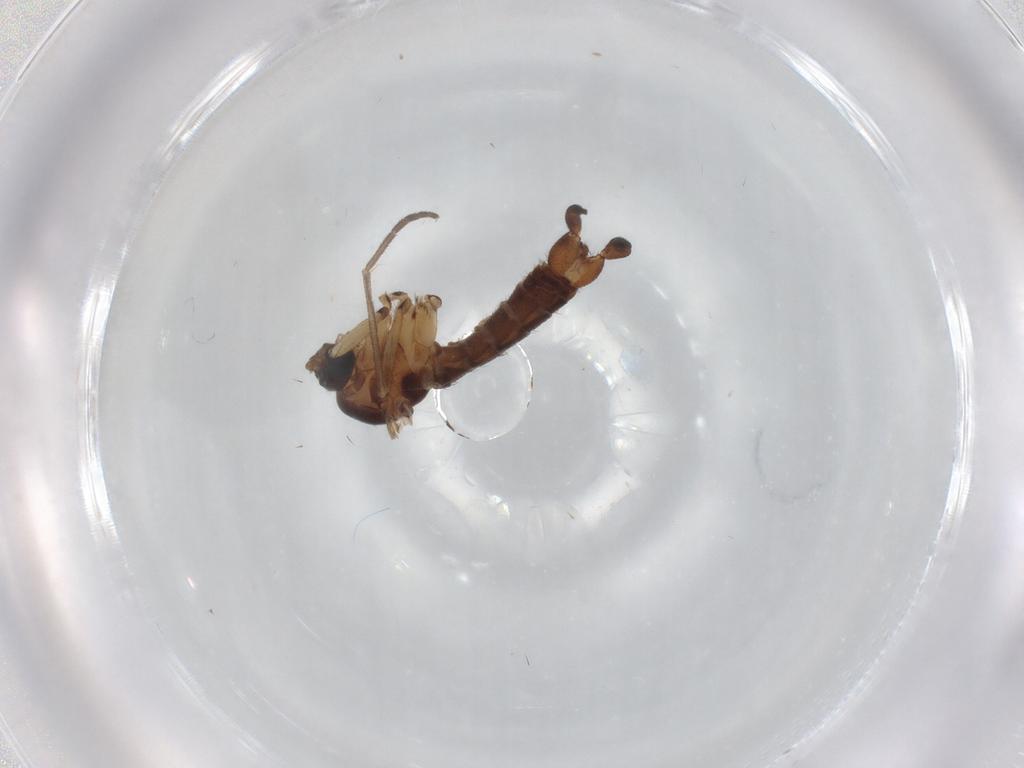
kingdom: Animalia
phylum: Arthropoda
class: Insecta
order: Diptera
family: Sciaridae
